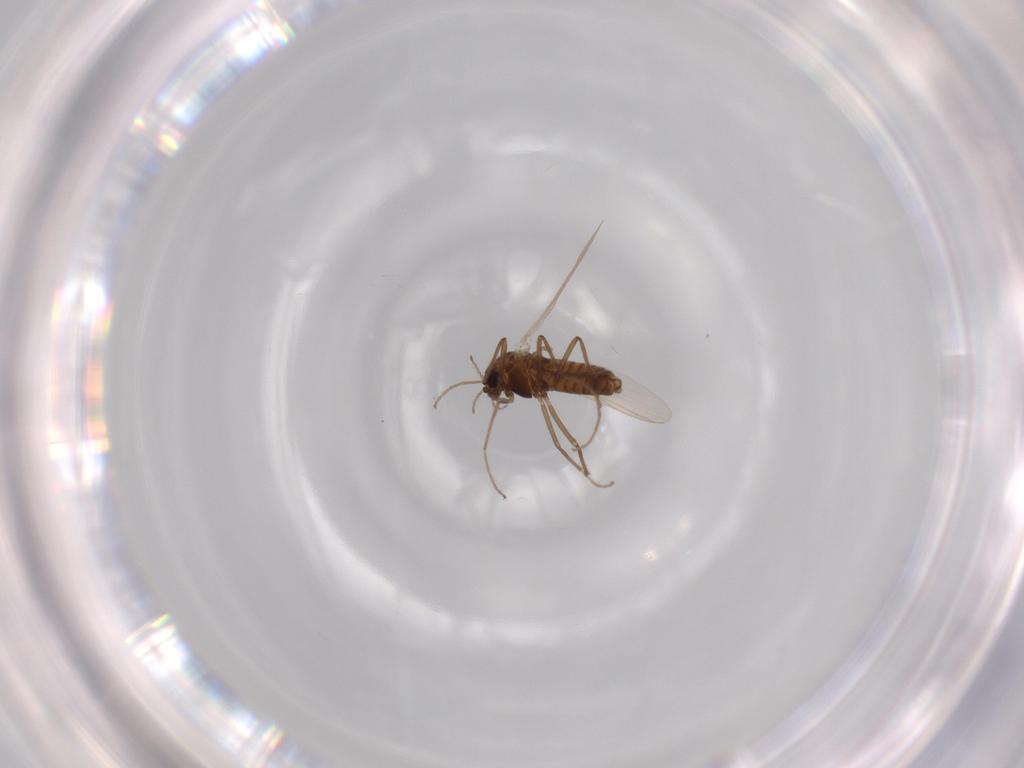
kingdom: Animalia
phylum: Arthropoda
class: Insecta
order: Diptera
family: Chironomidae
